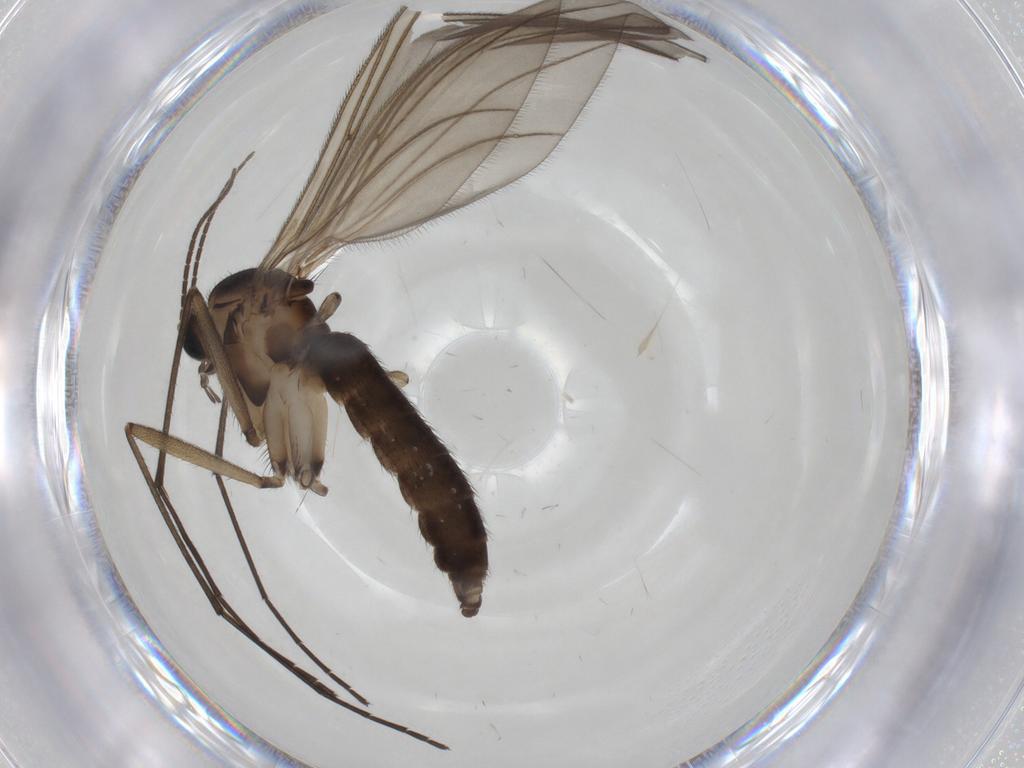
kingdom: Animalia
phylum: Arthropoda
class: Insecta
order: Diptera
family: Sciaridae
